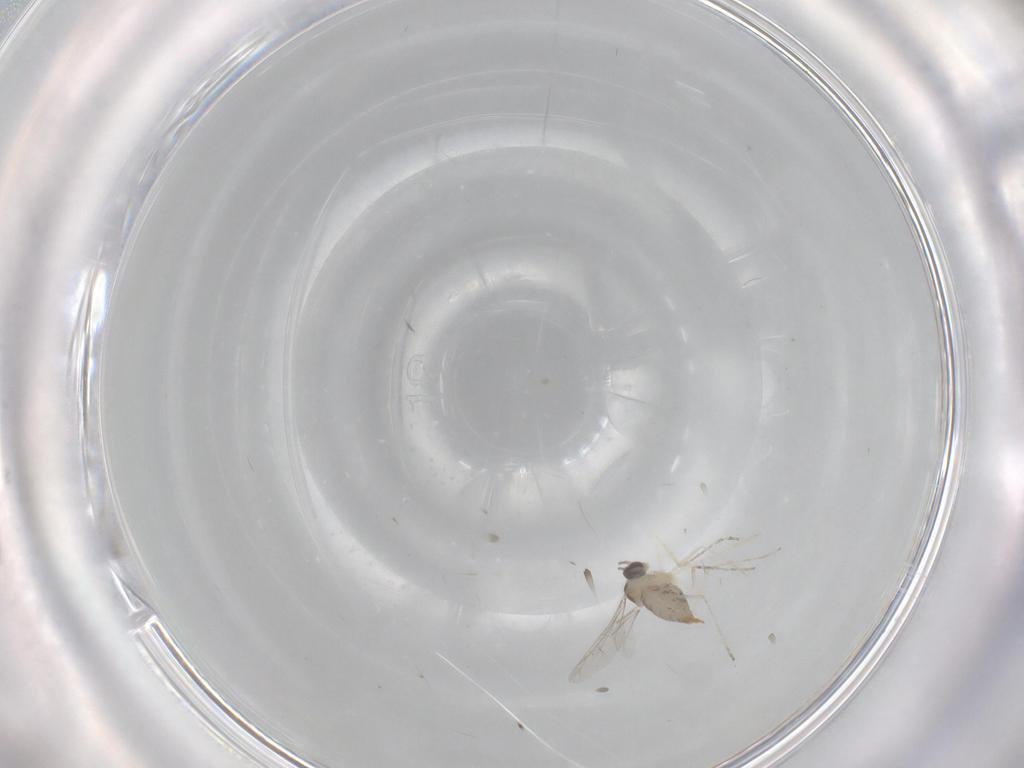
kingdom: Animalia
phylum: Arthropoda
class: Insecta
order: Diptera
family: Cecidomyiidae
